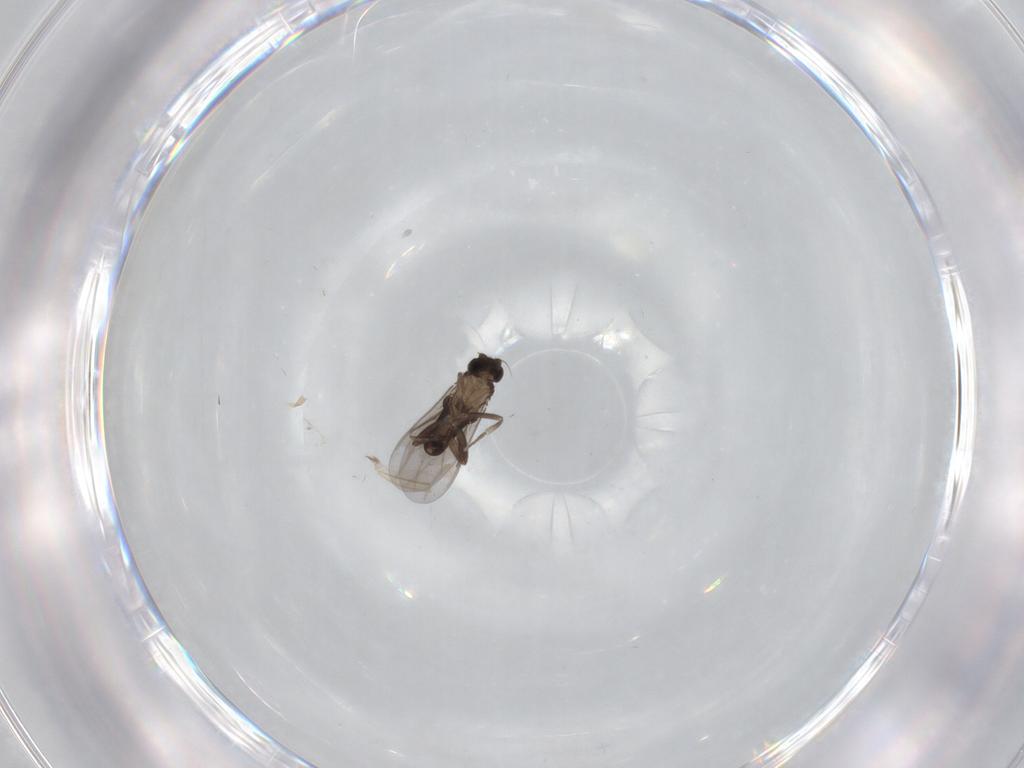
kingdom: Animalia
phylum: Arthropoda
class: Insecta
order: Diptera
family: Phoridae
